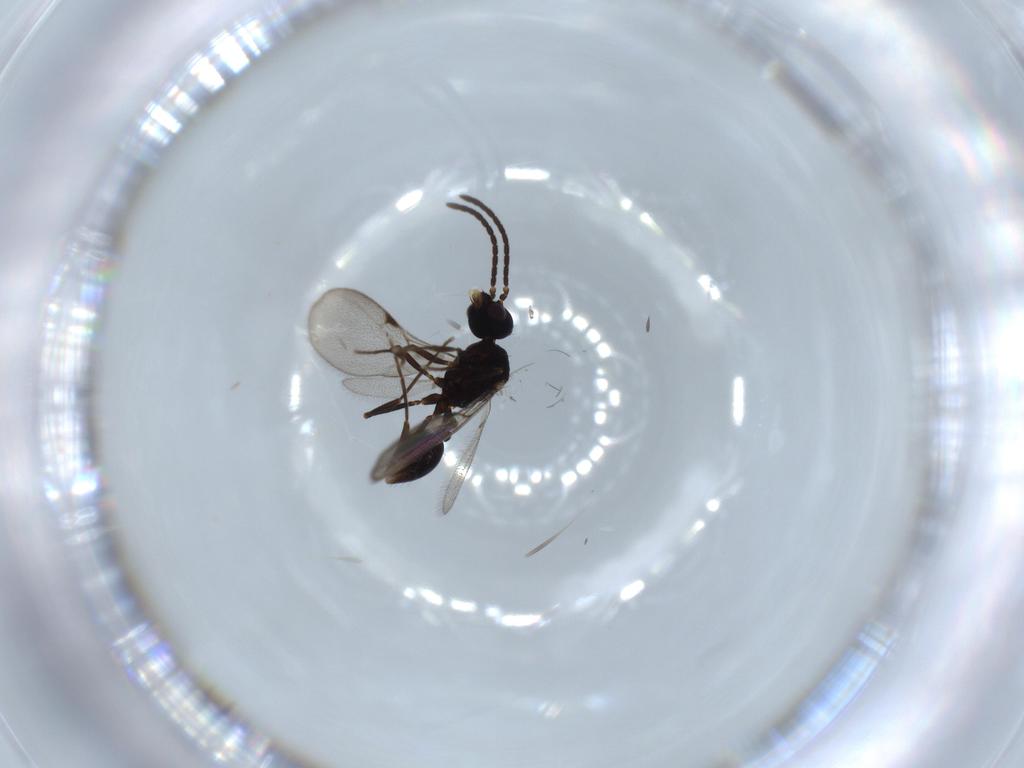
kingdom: Animalia
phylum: Arthropoda
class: Insecta
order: Hymenoptera
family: Formicidae
